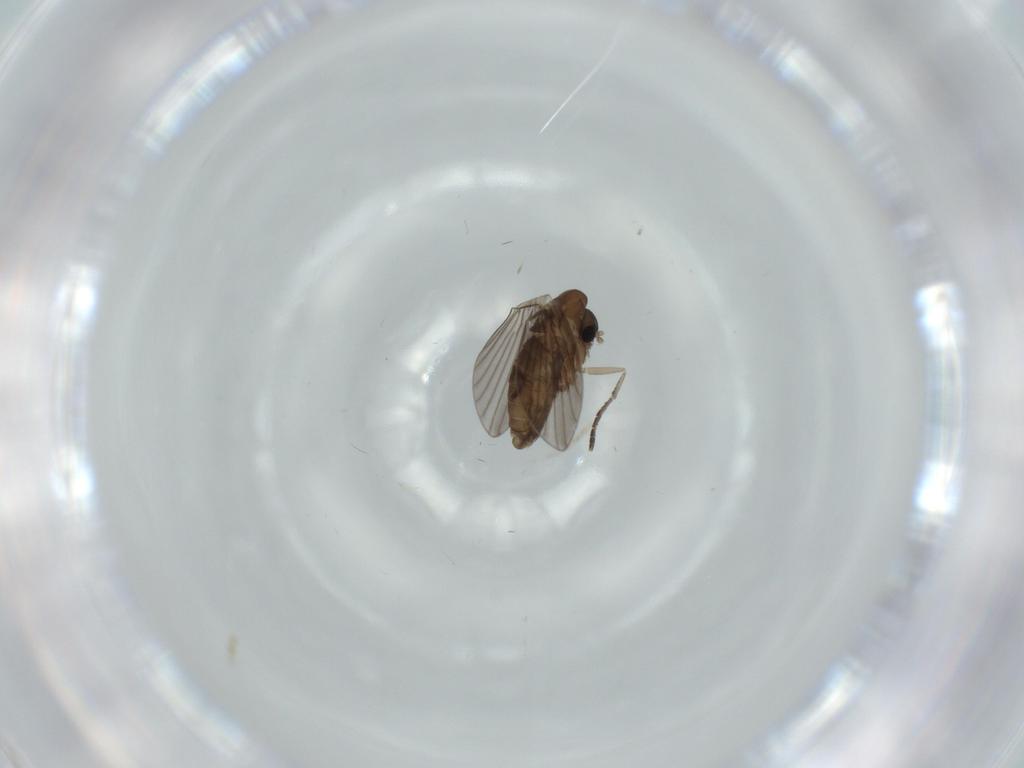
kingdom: Animalia
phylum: Arthropoda
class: Insecta
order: Diptera
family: Psychodidae
